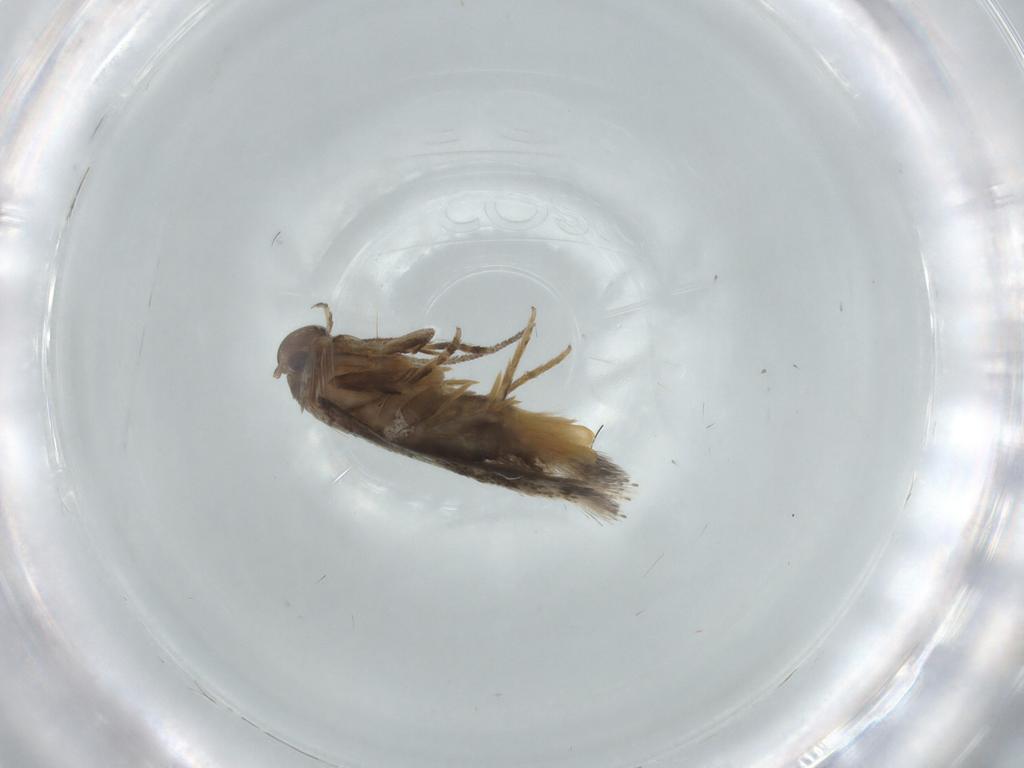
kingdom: Animalia
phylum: Arthropoda
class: Insecta
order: Lepidoptera
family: Elachistidae
